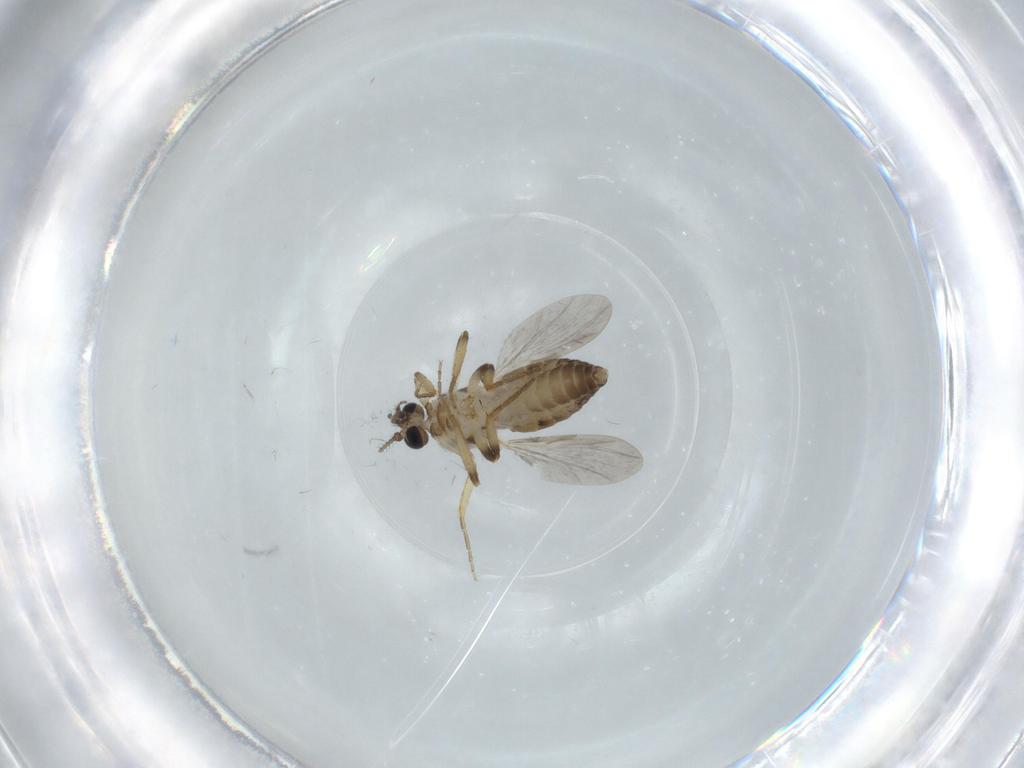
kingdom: Animalia
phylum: Arthropoda
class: Insecta
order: Diptera
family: Ceratopogonidae
